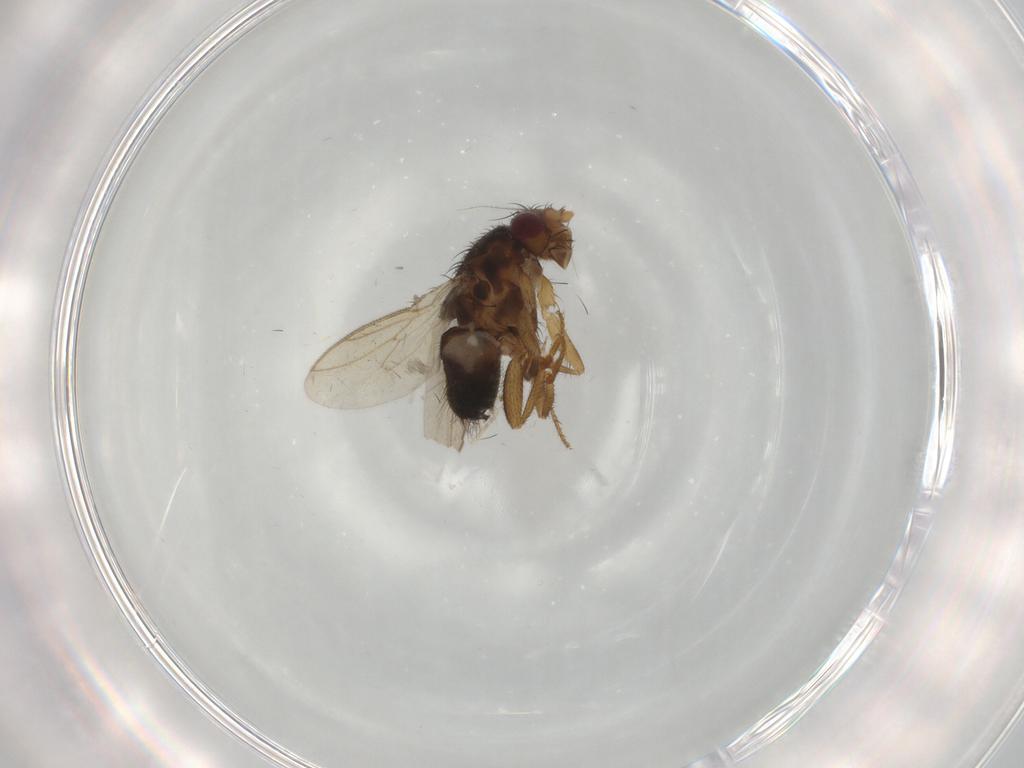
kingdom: Animalia
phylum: Arthropoda
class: Insecta
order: Diptera
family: Sphaeroceridae
